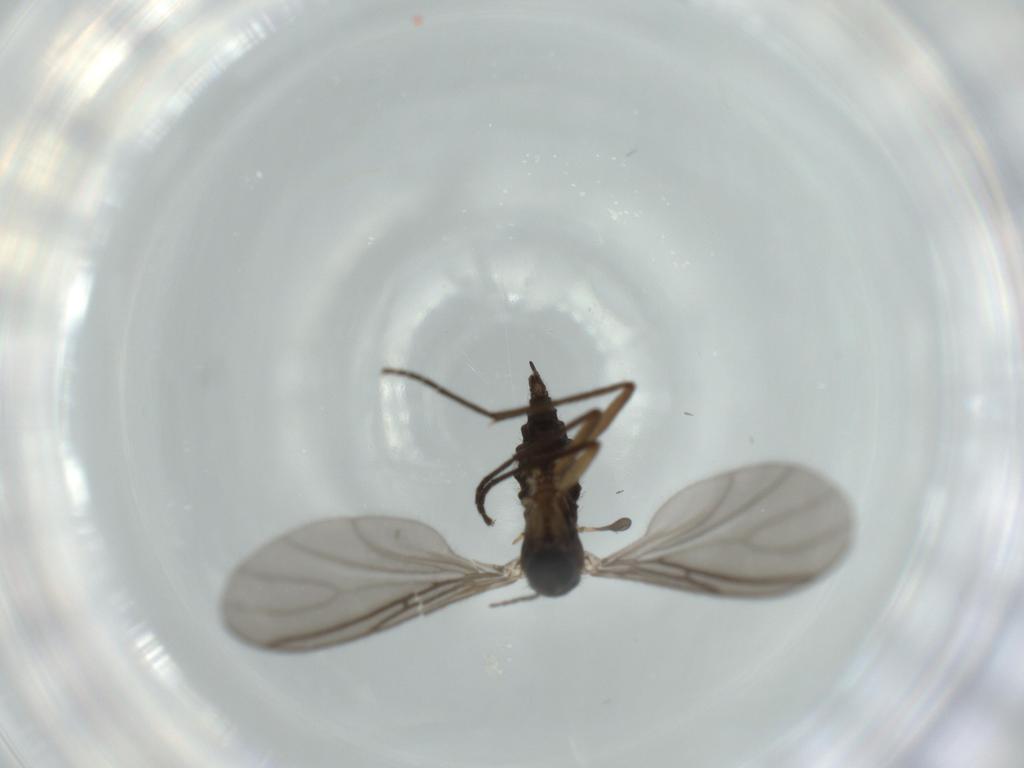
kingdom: Animalia
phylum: Arthropoda
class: Insecta
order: Diptera
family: Sciaridae
